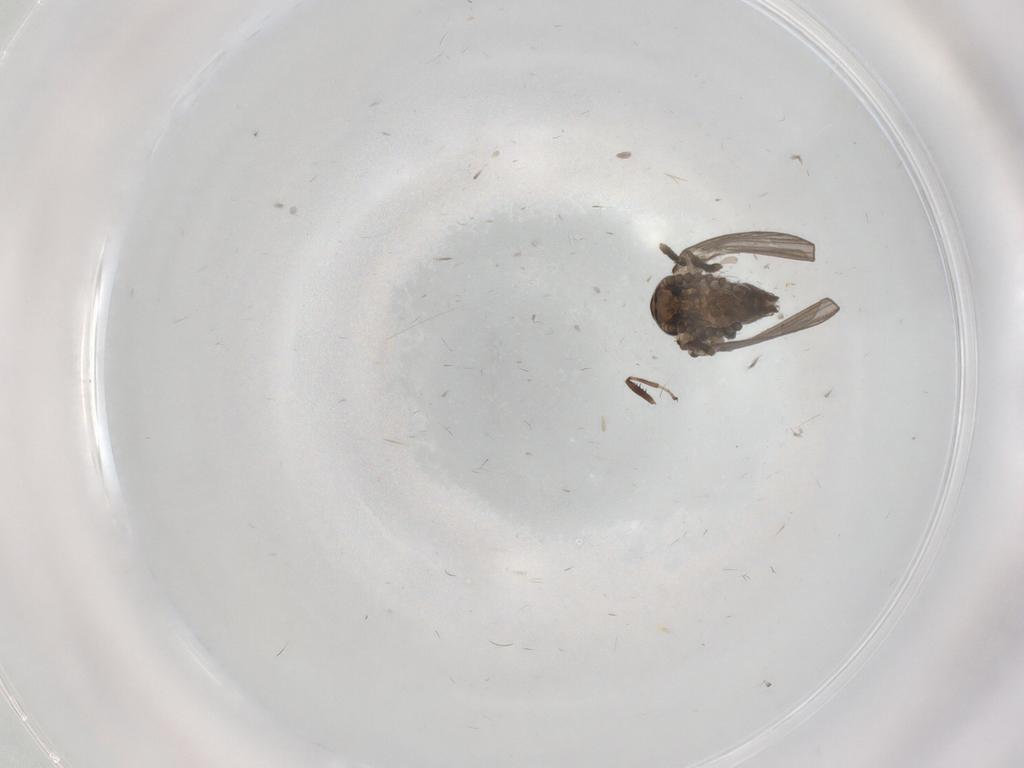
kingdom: Animalia
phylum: Arthropoda
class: Insecta
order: Diptera
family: Psychodidae
